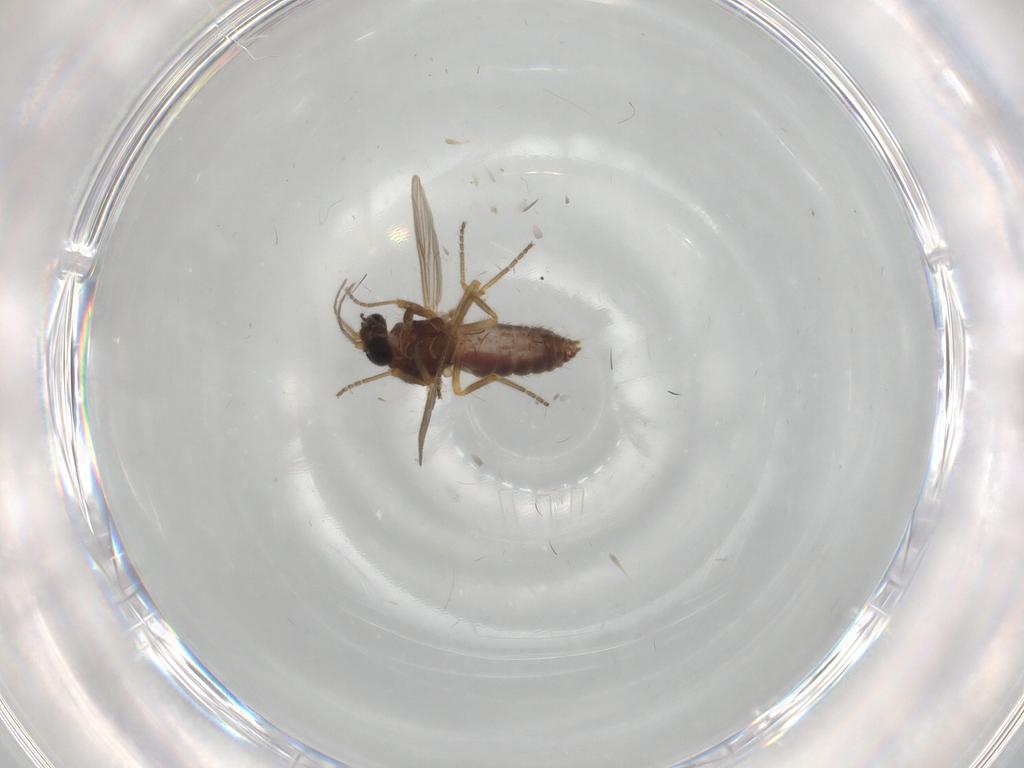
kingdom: Animalia
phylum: Arthropoda
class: Insecta
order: Diptera
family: Ceratopogonidae
